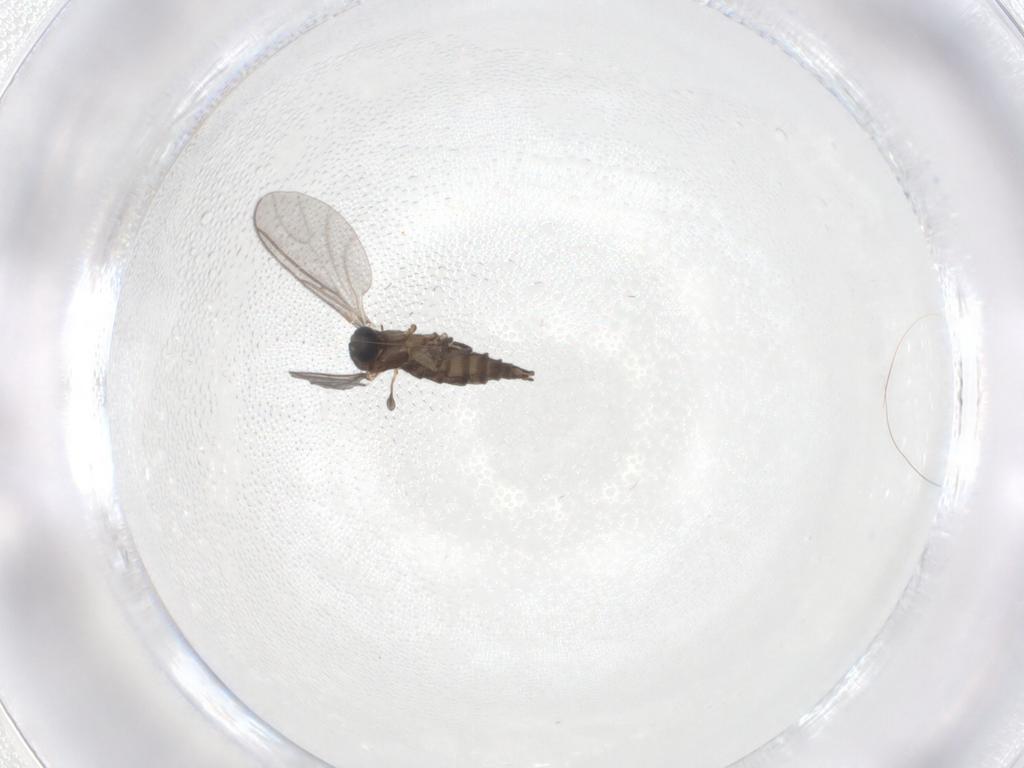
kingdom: Animalia
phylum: Arthropoda
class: Insecta
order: Diptera
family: Sciaridae
